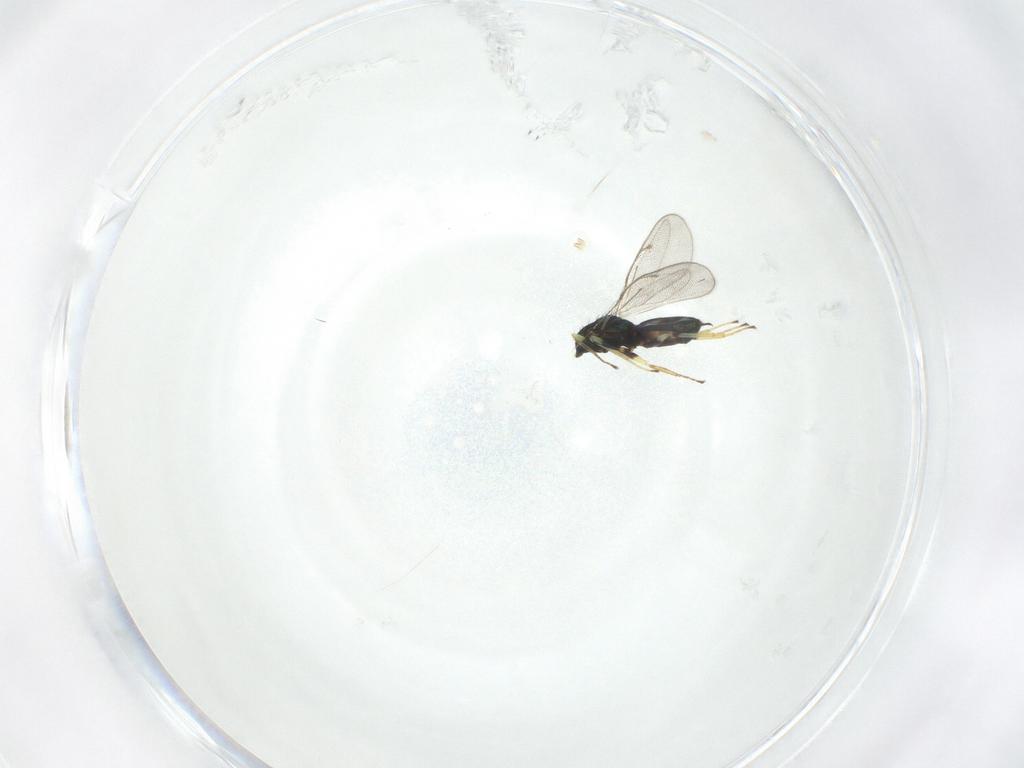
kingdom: Animalia
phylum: Arthropoda
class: Insecta
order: Hymenoptera
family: Eulophidae
